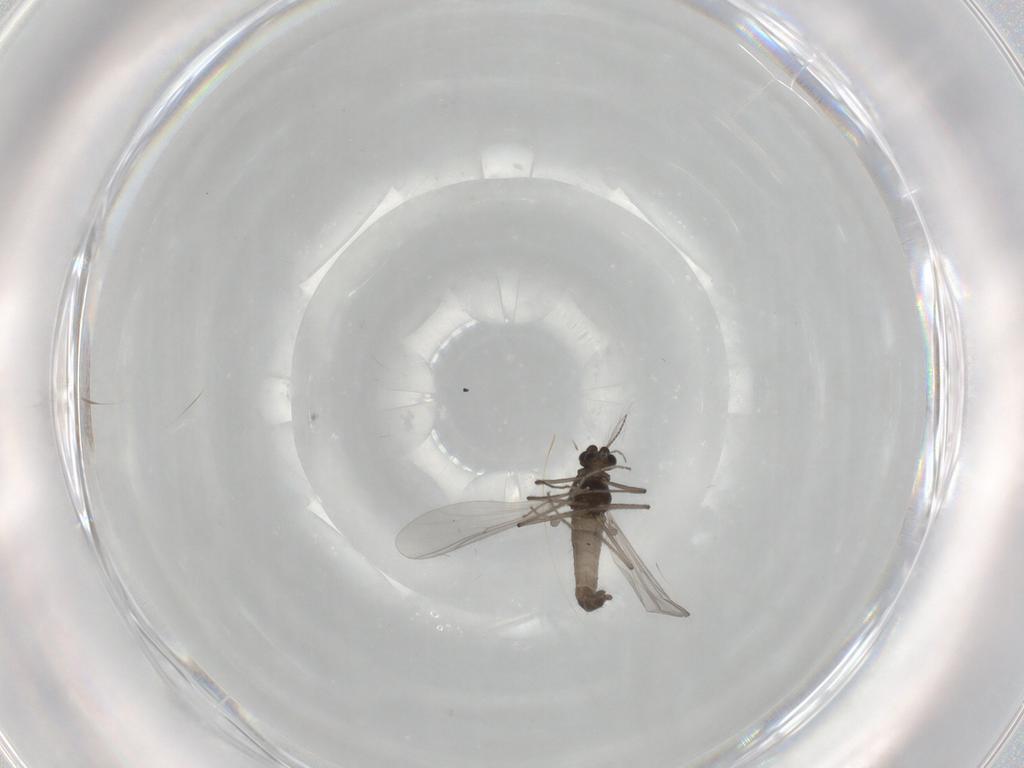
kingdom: Animalia
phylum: Arthropoda
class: Insecta
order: Diptera
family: Chironomidae
